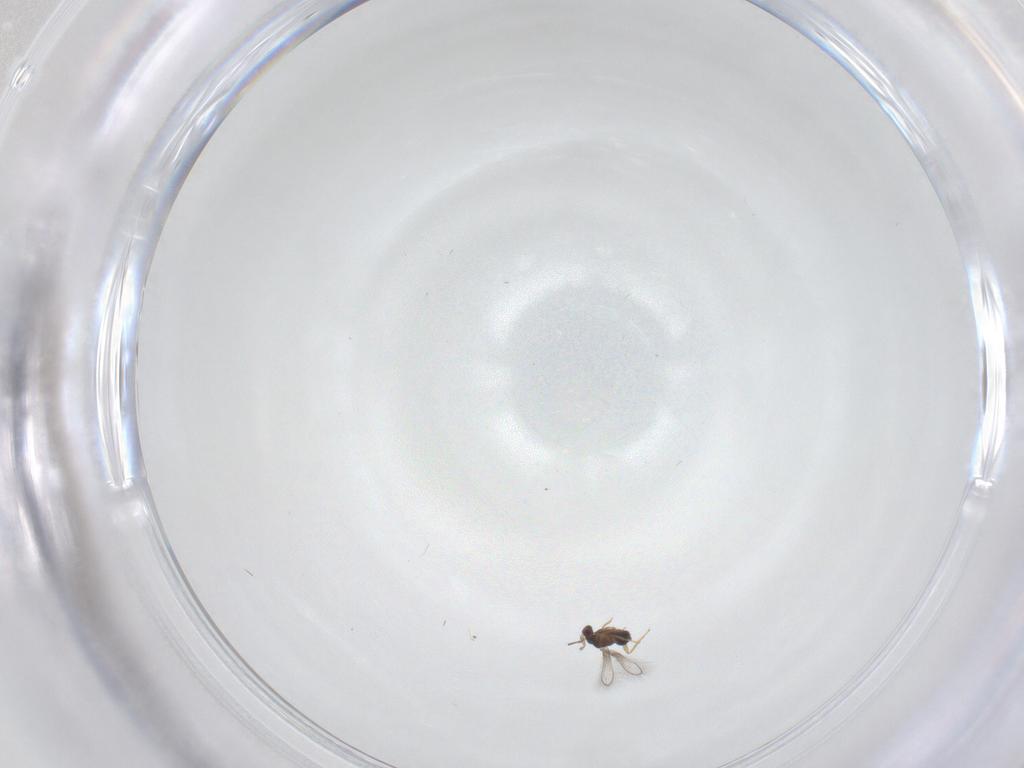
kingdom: Animalia
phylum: Arthropoda
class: Insecta
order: Hymenoptera
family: Mymaridae
